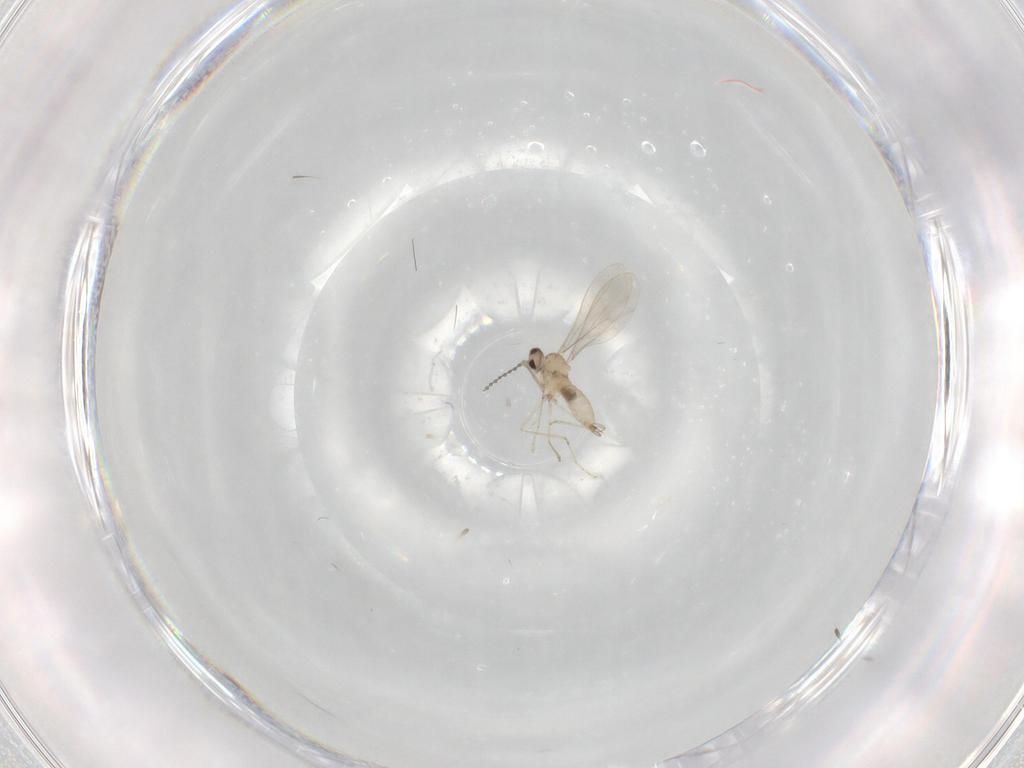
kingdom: Animalia
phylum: Arthropoda
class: Insecta
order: Diptera
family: Cecidomyiidae
